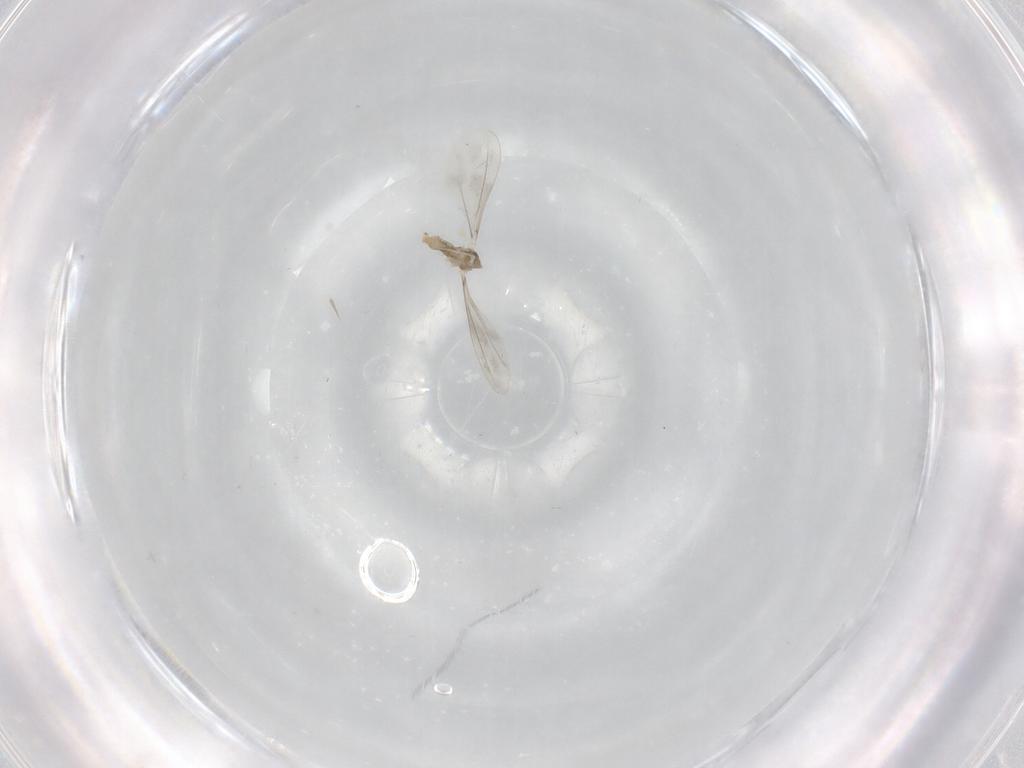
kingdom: Animalia
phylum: Arthropoda
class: Insecta
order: Diptera
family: Cecidomyiidae
